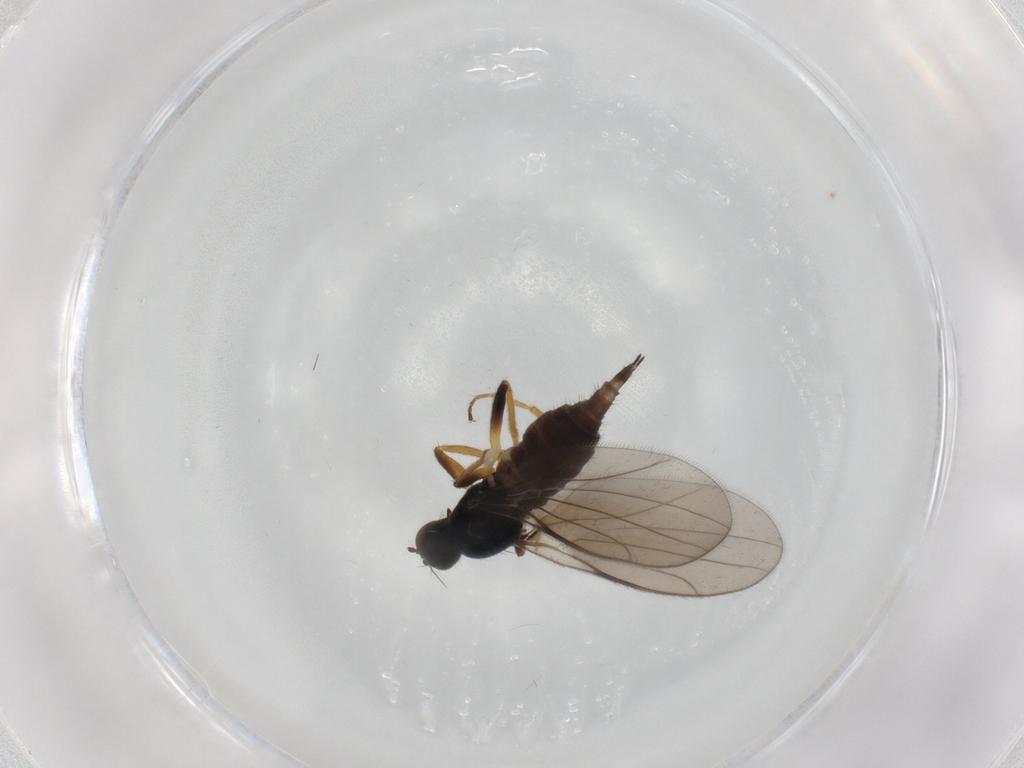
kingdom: Animalia
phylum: Arthropoda
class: Insecta
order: Diptera
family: Hybotidae
